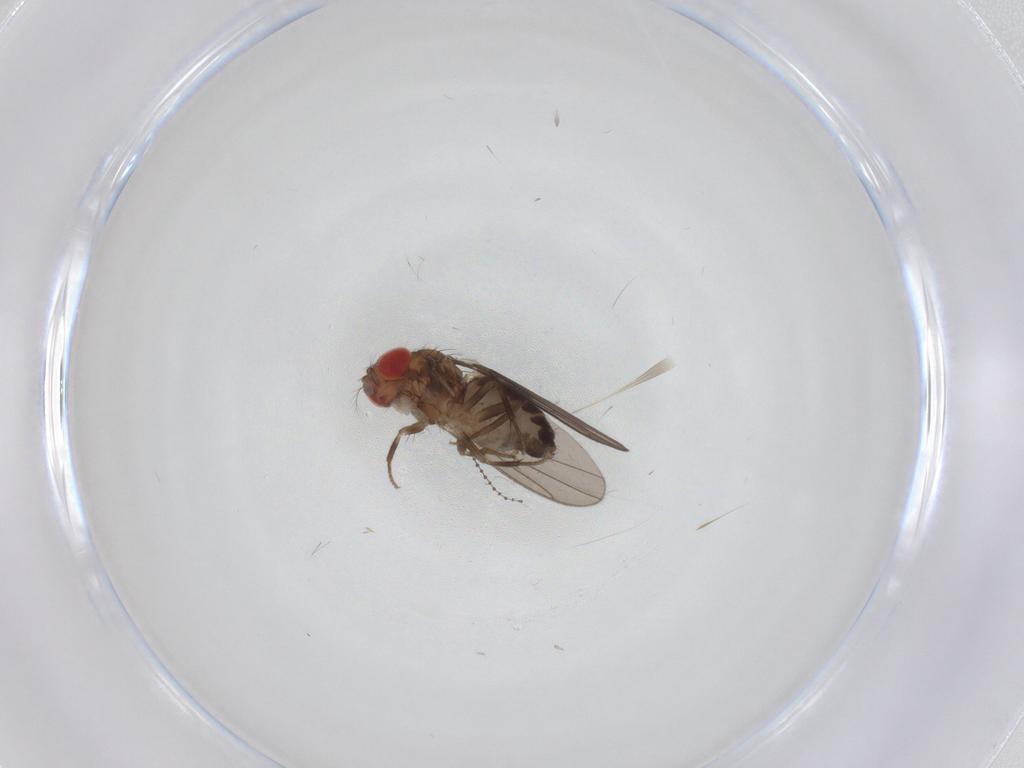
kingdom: Animalia
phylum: Arthropoda
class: Insecta
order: Diptera
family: Drosophilidae
